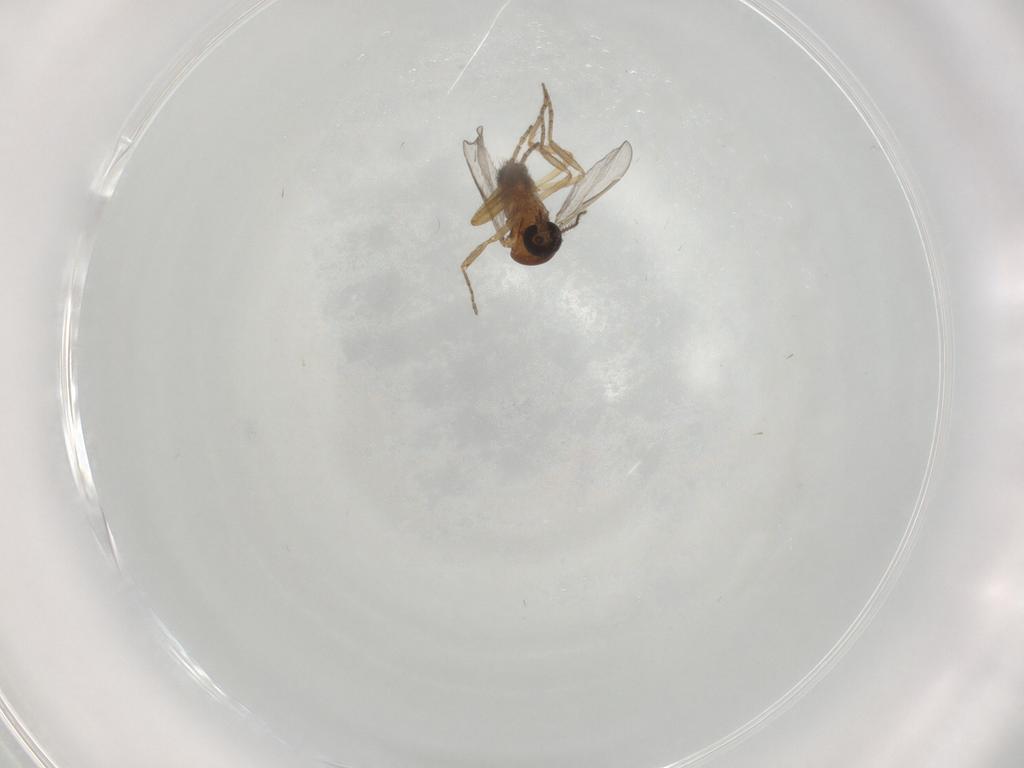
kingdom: Animalia
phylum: Arthropoda
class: Insecta
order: Diptera
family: Ceratopogonidae
